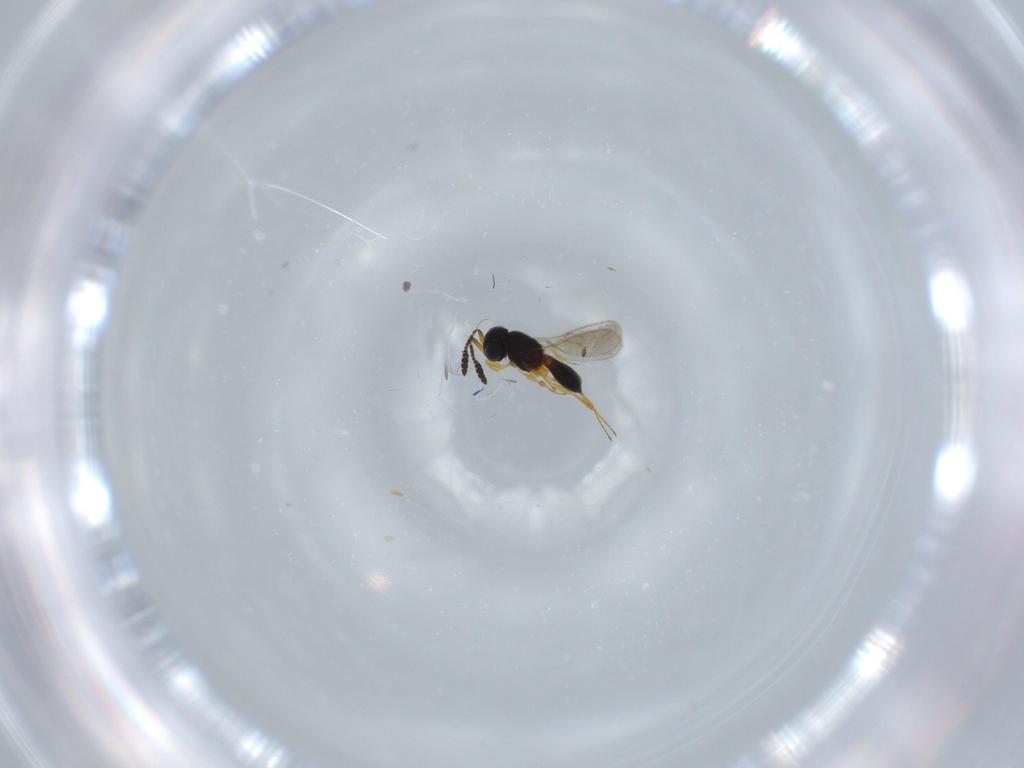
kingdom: Animalia
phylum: Arthropoda
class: Insecta
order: Hymenoptera
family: Scelionidae
